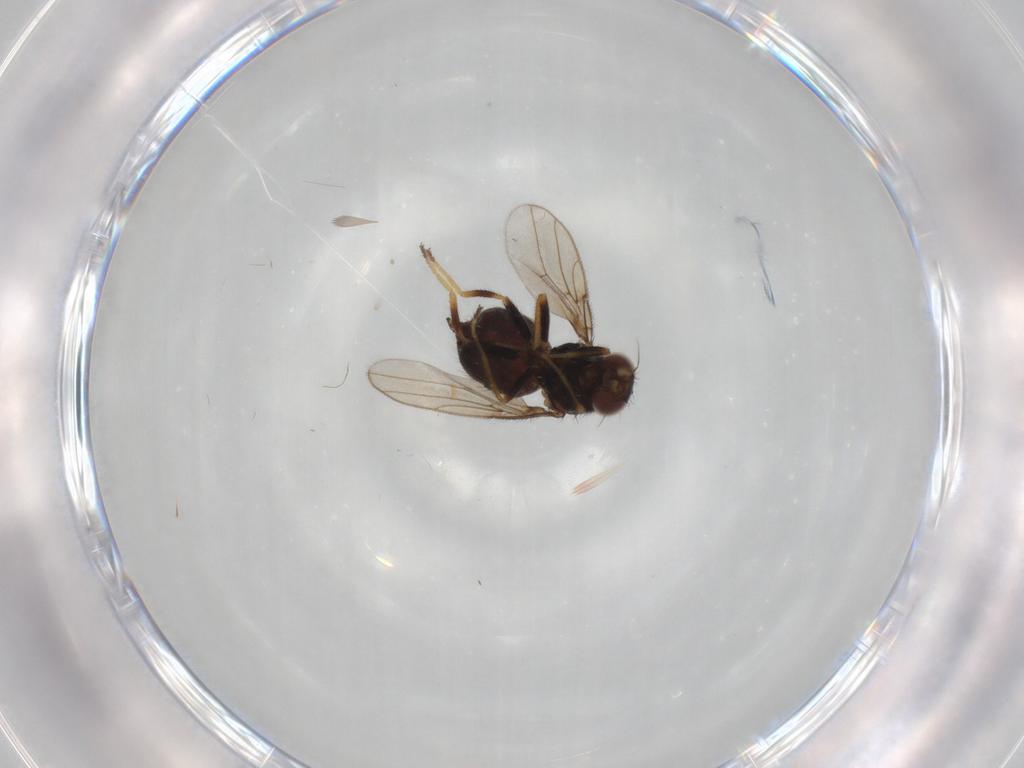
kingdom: Animalia
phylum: Arthropoda
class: Insecta
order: Diptera
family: Chloropidae
